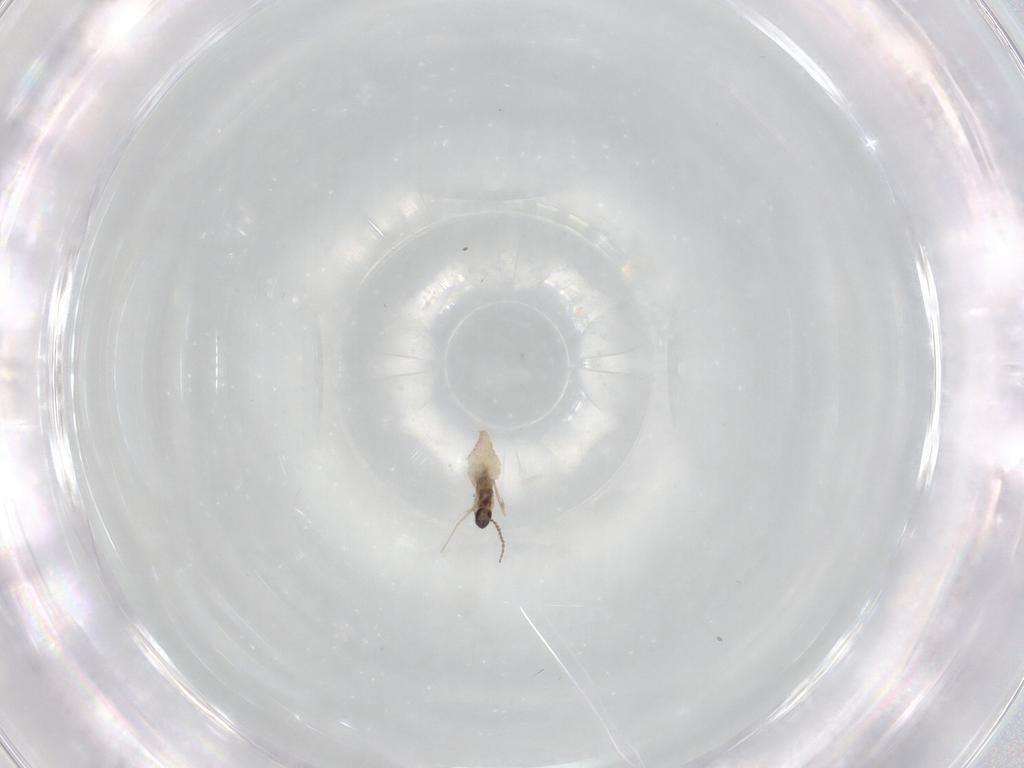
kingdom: Animalia
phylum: Arthropoda
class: Insecta
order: Diptera
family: Cecidomyiidae
